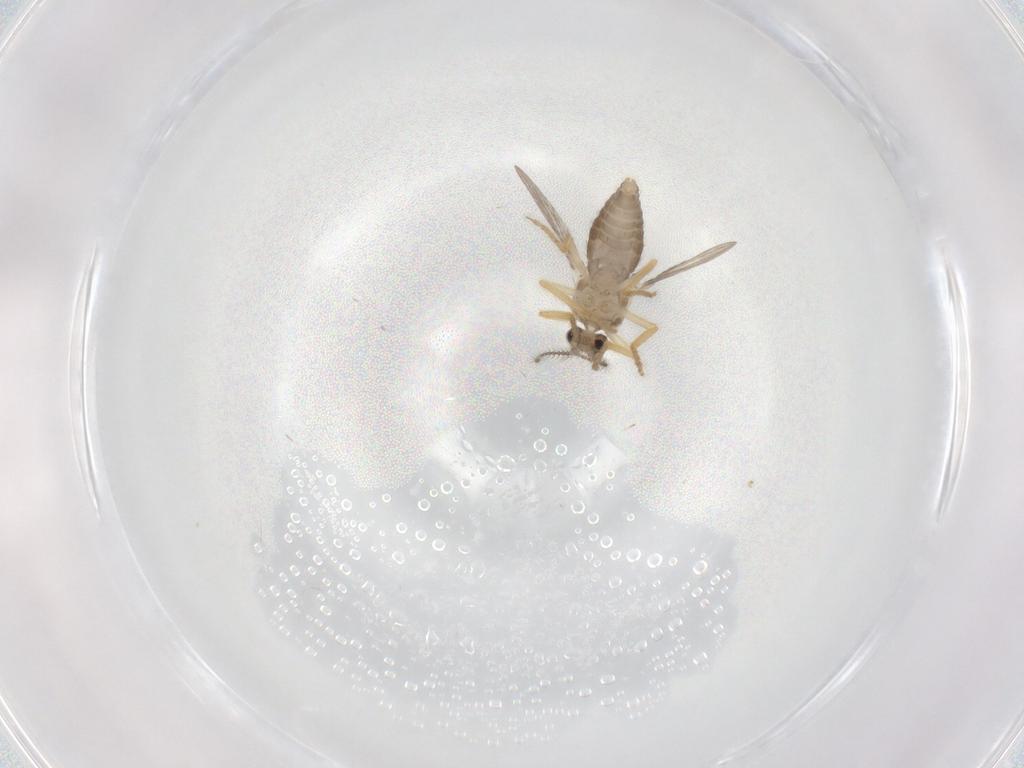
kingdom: Animalia
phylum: Arthropoda
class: Insecta
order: Diptera
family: Ceratopogonidae
